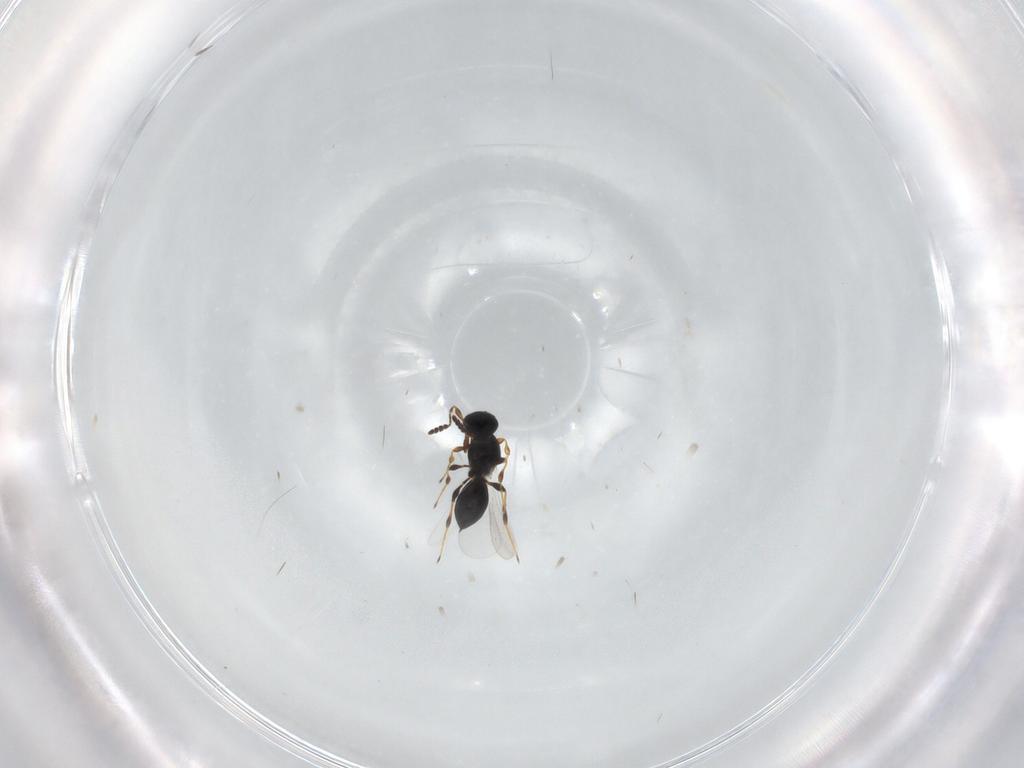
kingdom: Animalia
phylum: Arthropoda
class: Insecta
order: Hymenoptera
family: Platygastridae
